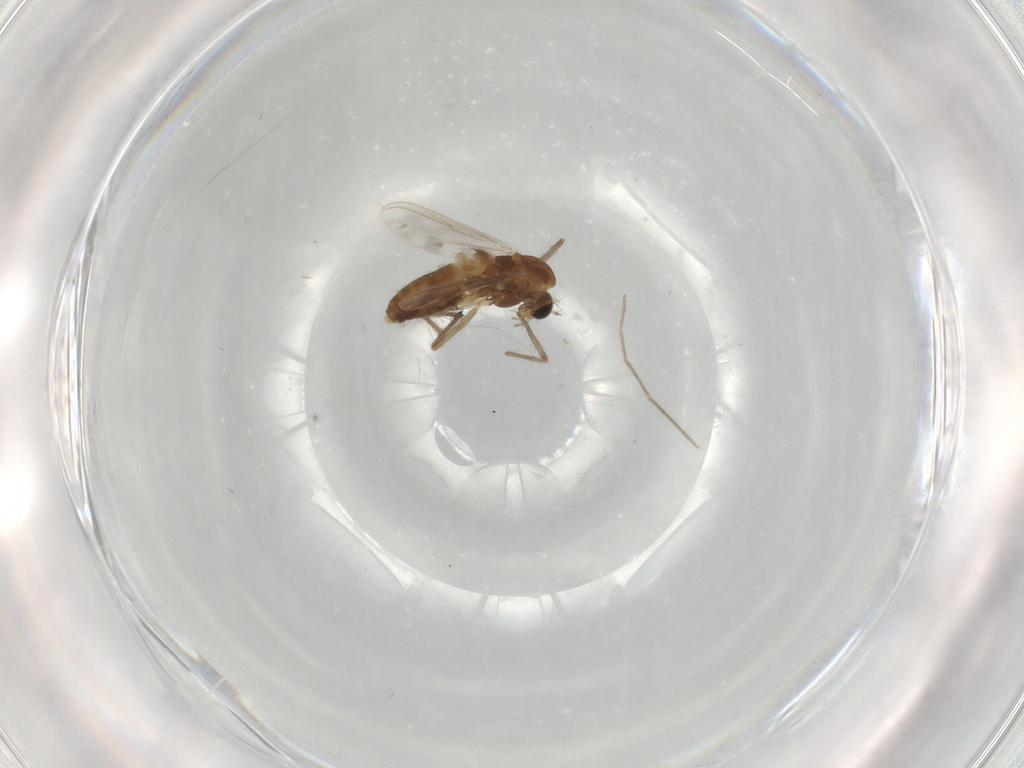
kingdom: Animalia
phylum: Arthropoda
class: Insecta
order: Diptera
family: Chironomidae
